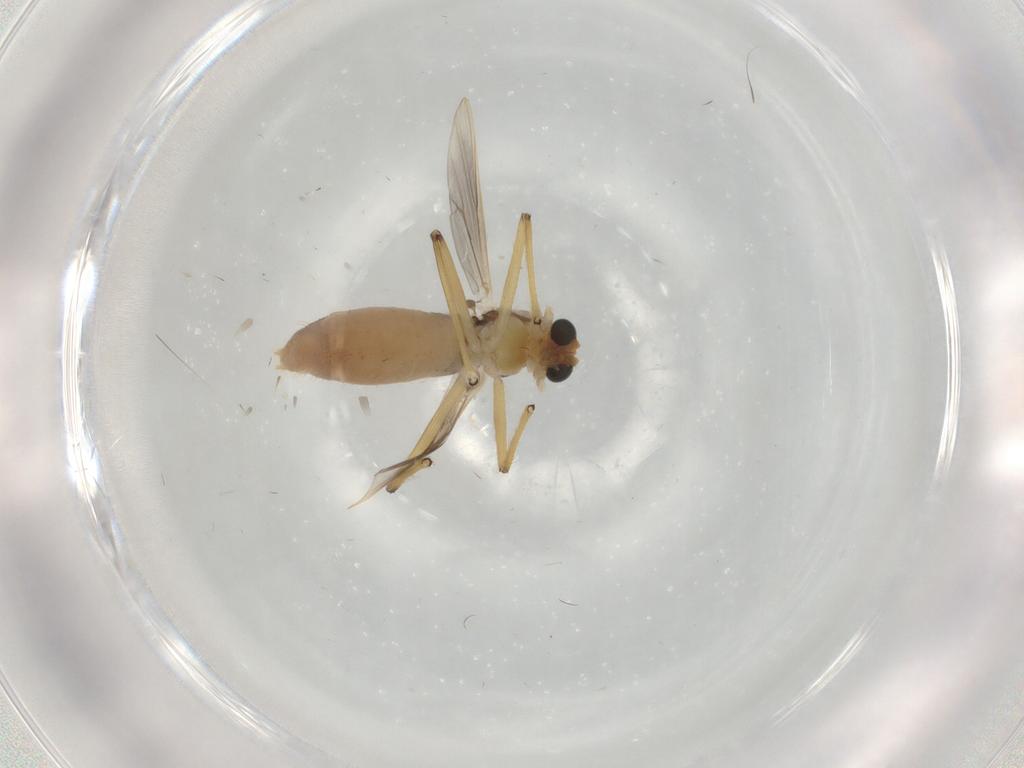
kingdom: Animalia
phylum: Arthropoda
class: Insecta
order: Diptera
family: Chironomidae
